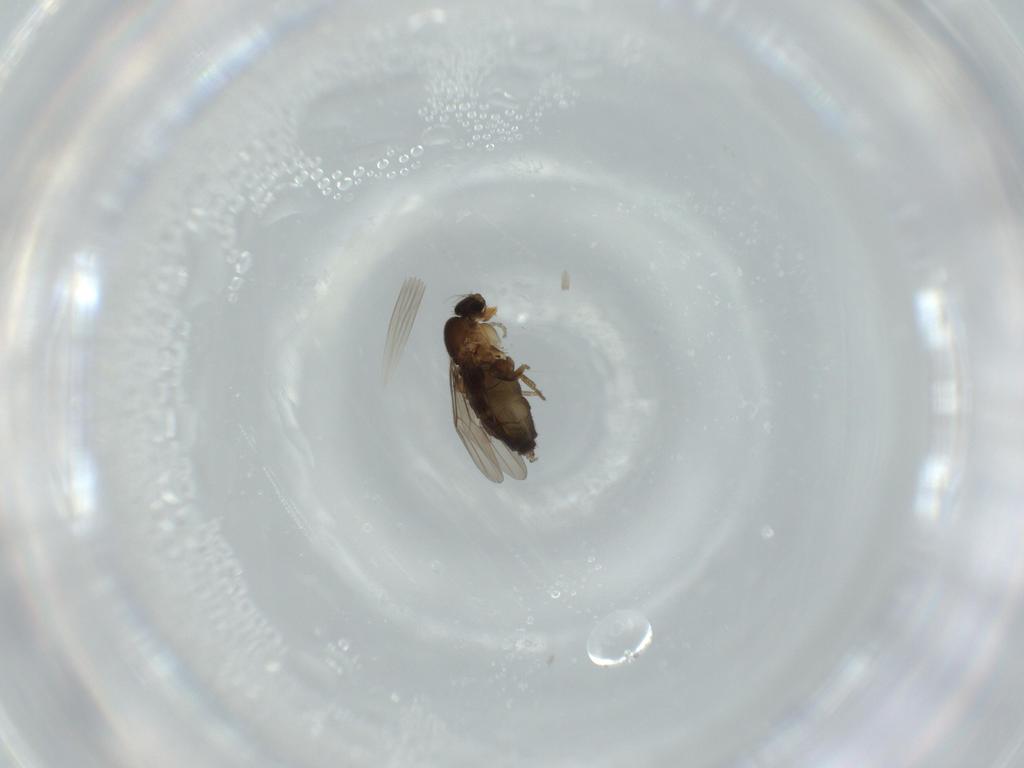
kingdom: Animalia
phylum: Arthropoda
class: Insecta
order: Diptera
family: Phoridae
